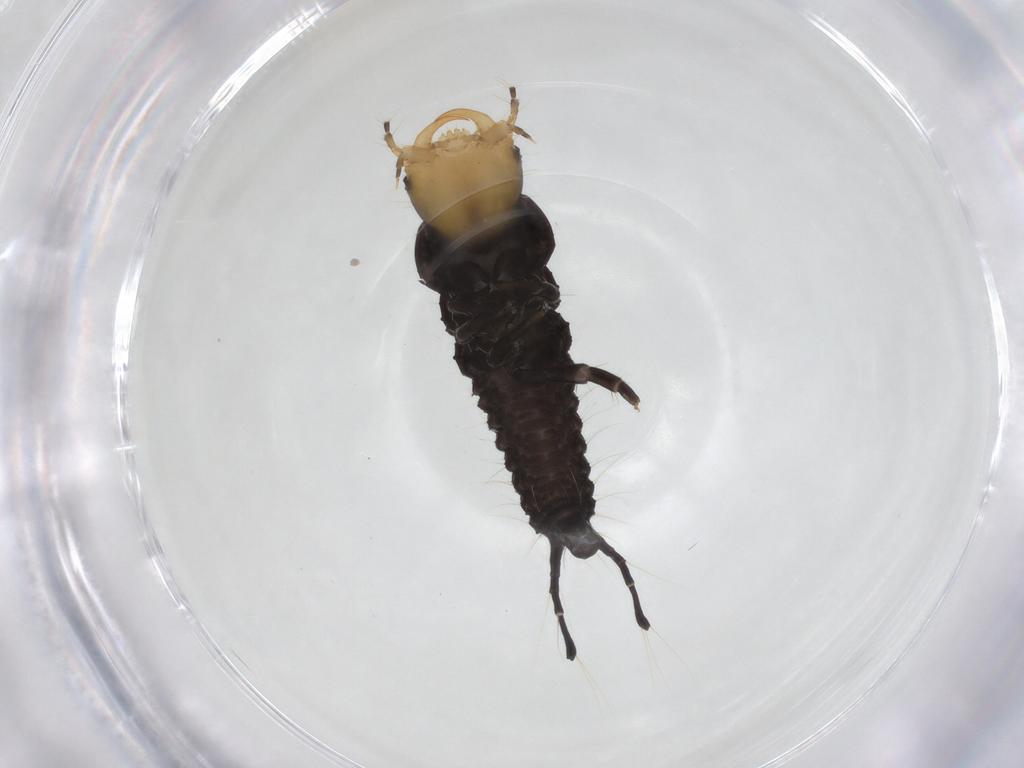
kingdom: Animalia
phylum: Arthropoda
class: Insecta
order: Coleoptera
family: Carabidae
